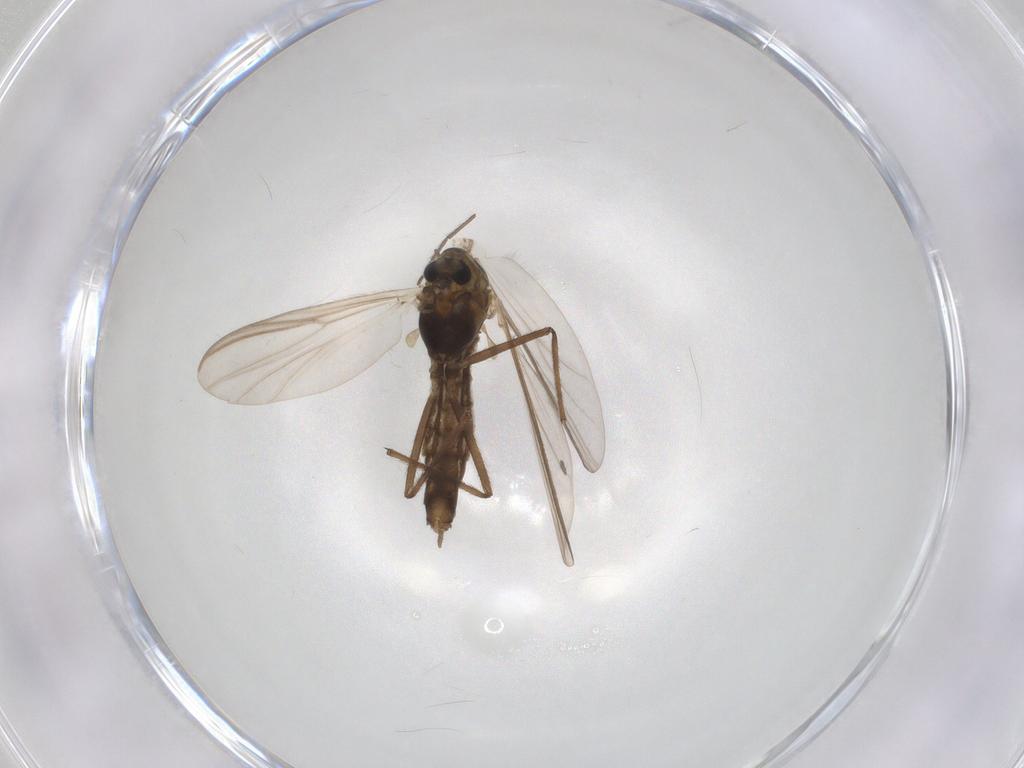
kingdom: Animalia
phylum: Arthropoda
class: Insecta
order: Diptera
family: Chironomidae
